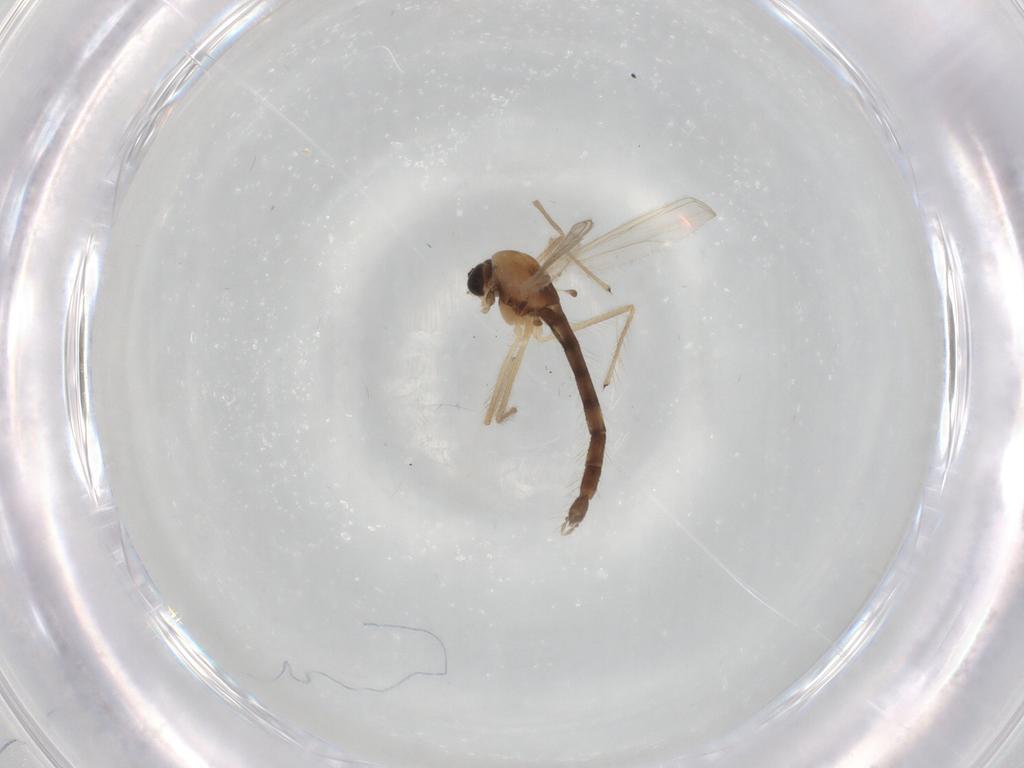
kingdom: Animalia
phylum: Arthropoda
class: Insecta
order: Diptera
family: Chironomidae
